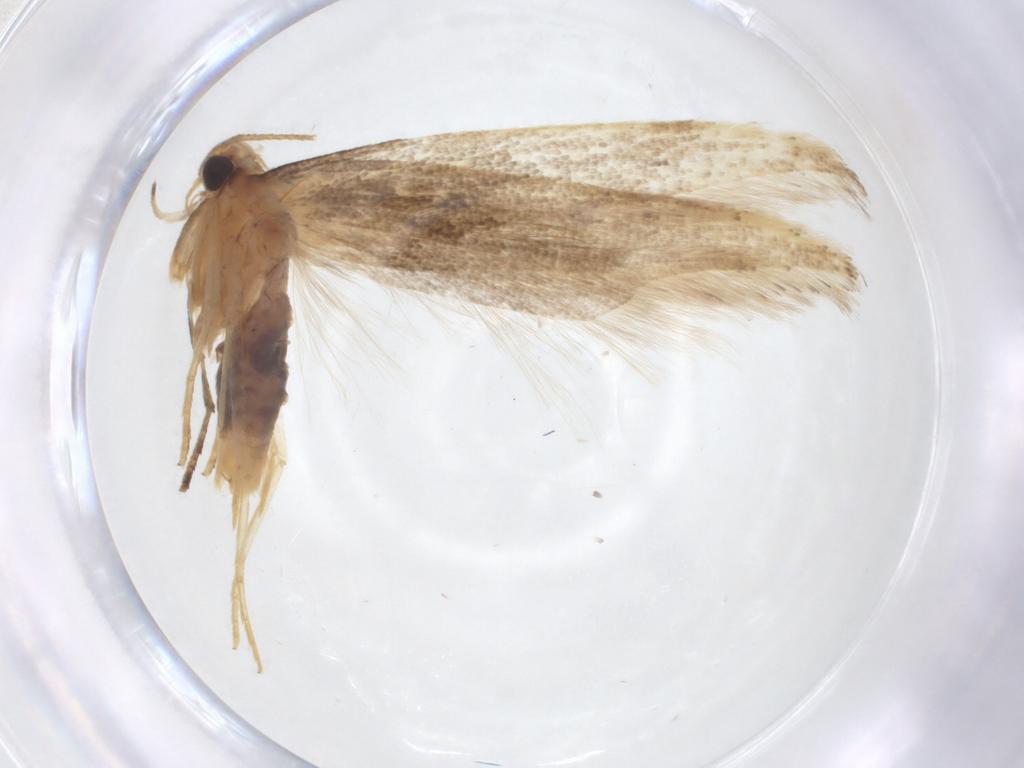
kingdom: Animalia
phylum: Arthropoda
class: Insecta
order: Lepidoptera
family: Gelechiidae
